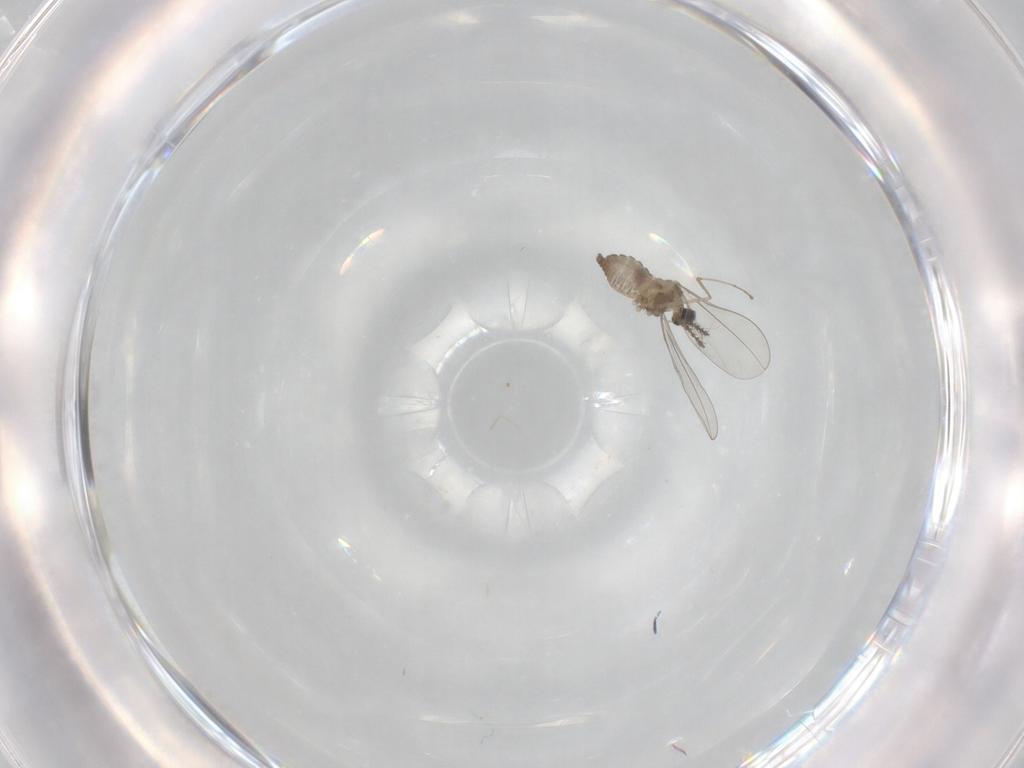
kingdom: Animalia
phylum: Arthropoda
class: Insecta
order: Diptera
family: Cecidomyiidae
